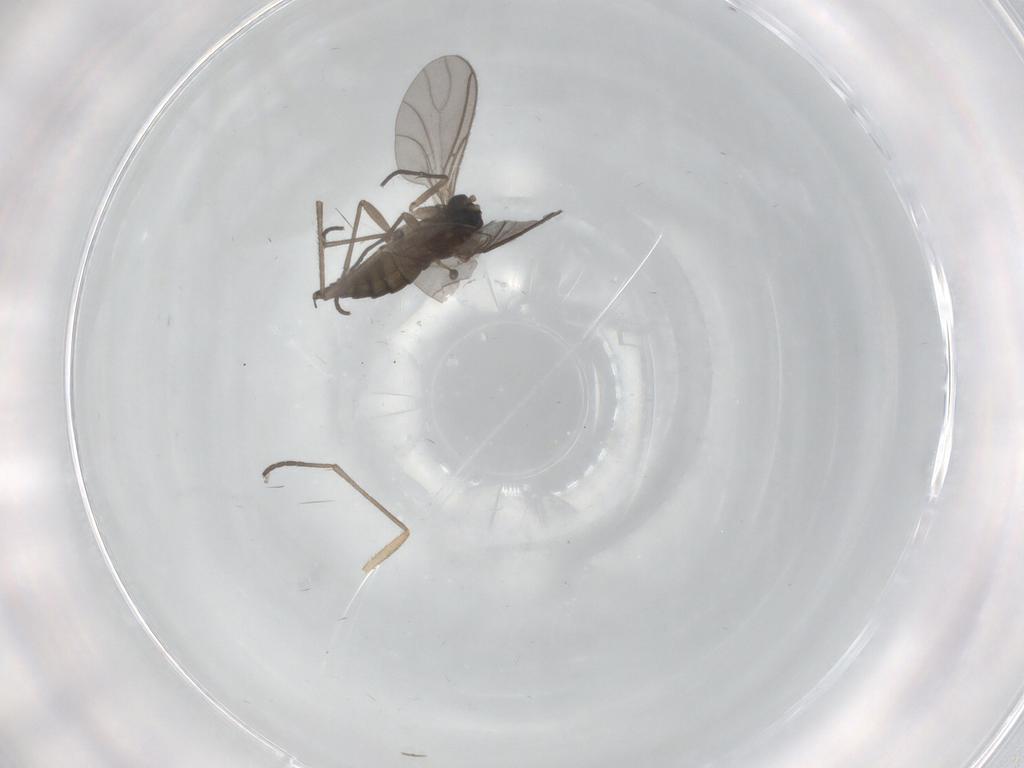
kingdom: Animalia
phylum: Arthropoda
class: Insecta
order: Diptera
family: Sciaridae
